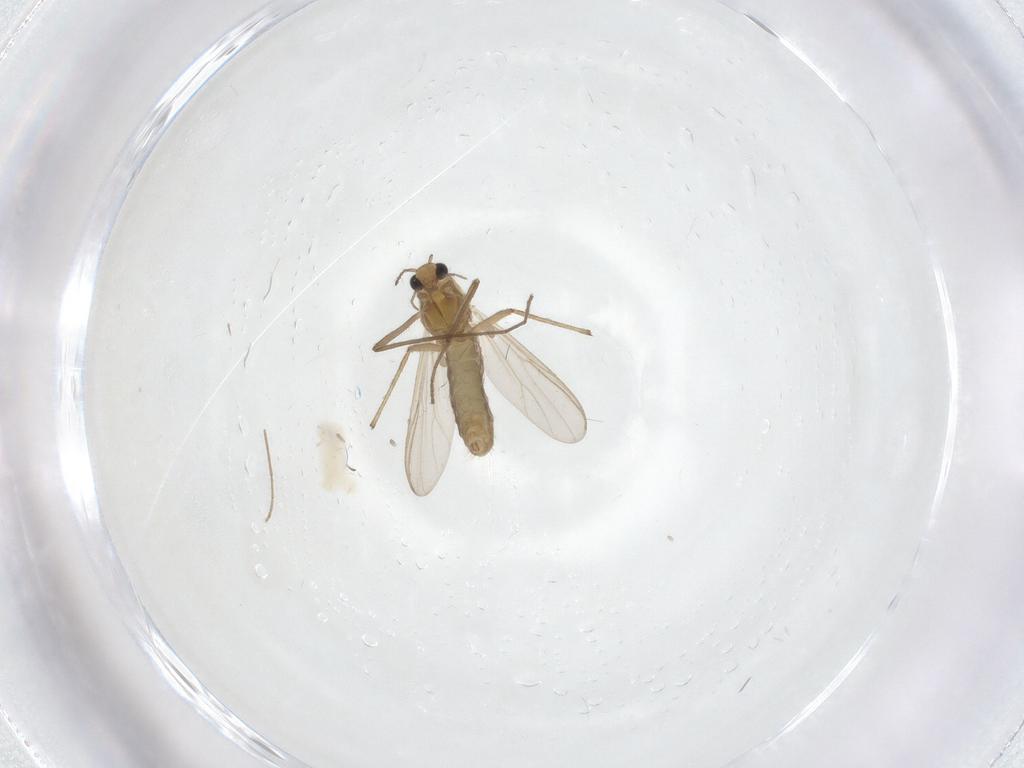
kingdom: Animalia
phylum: Arthropoda
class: Insecta
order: Diptera
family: Chironomidae
